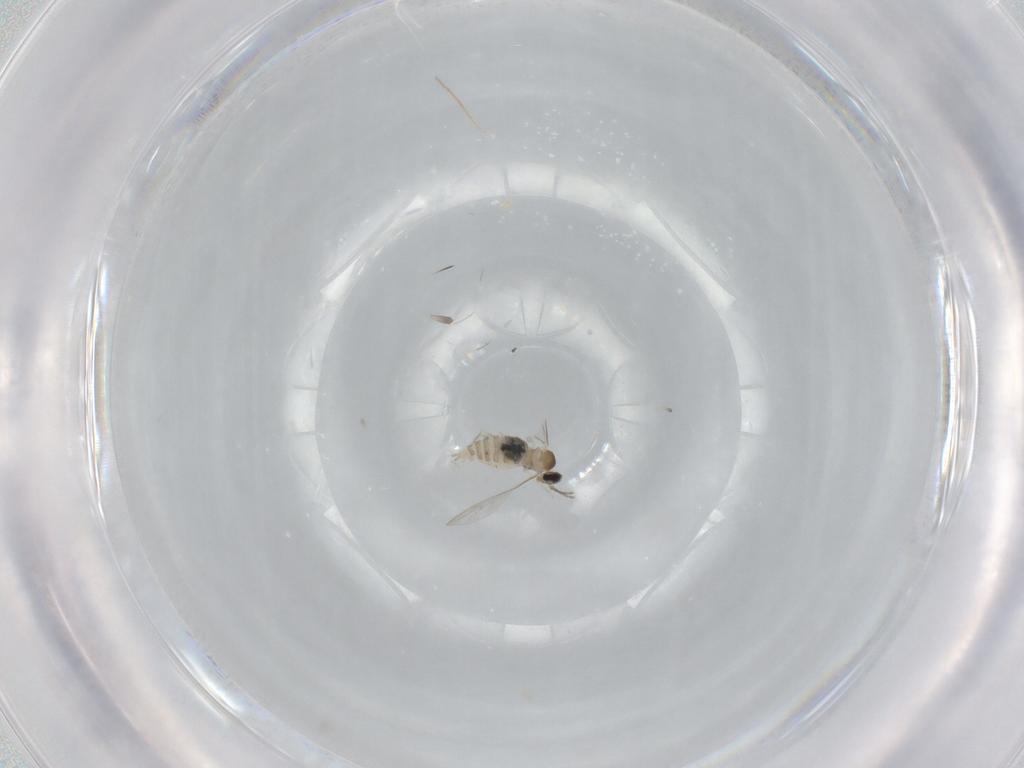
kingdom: Animalia
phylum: Arthropoda
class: Insecta
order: Diptera
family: Cecidomyiidae
